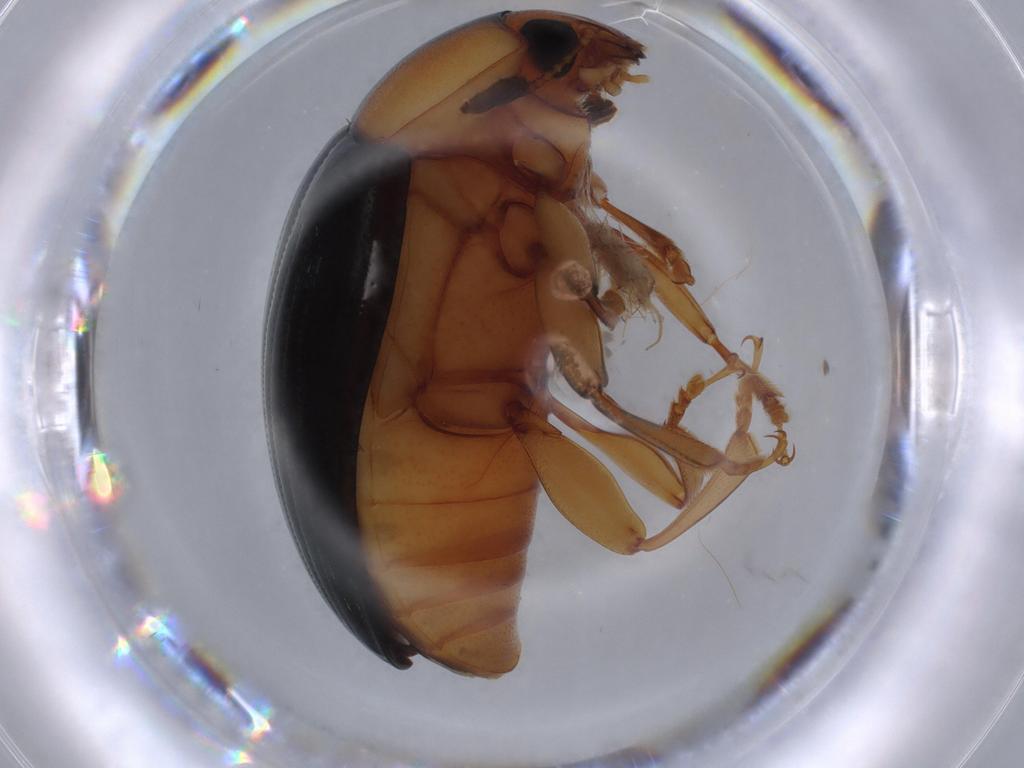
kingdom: Animalia
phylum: Arthropoda
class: Insecta
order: Coleoptera
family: Erotylidae
